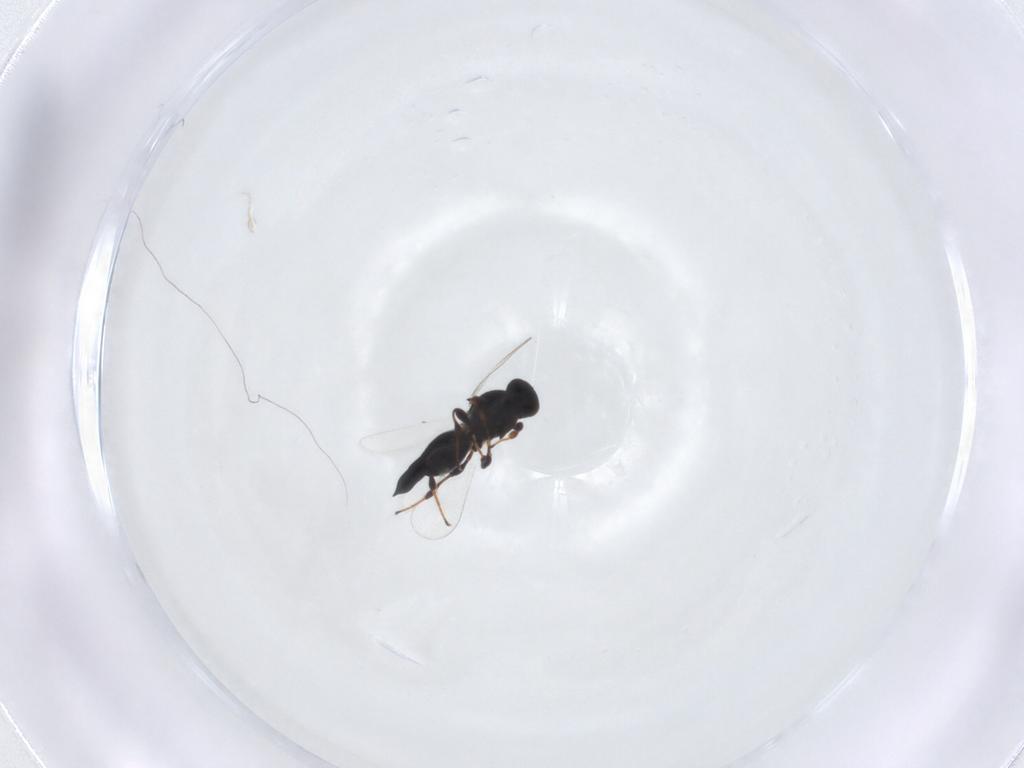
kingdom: Animalia
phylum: Arthropoda
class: Insecta
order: Hymenoptera
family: Platygastridae
